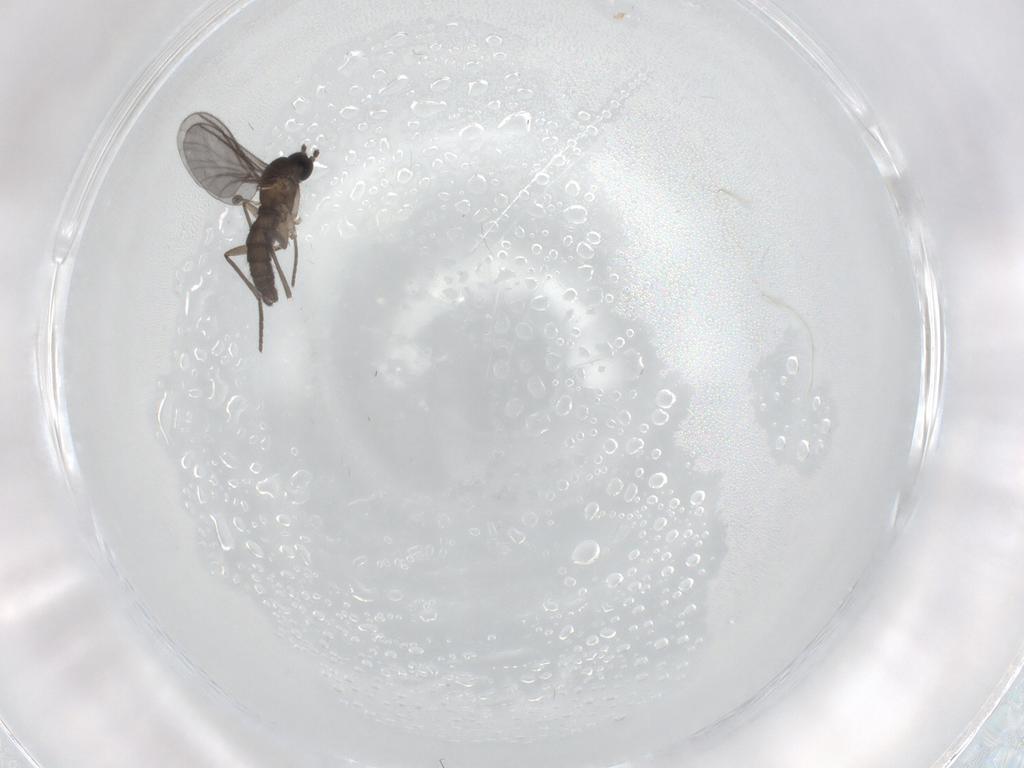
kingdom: Animalia
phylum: Arthropoda
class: Insecta
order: Diptera
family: Chironomidae
